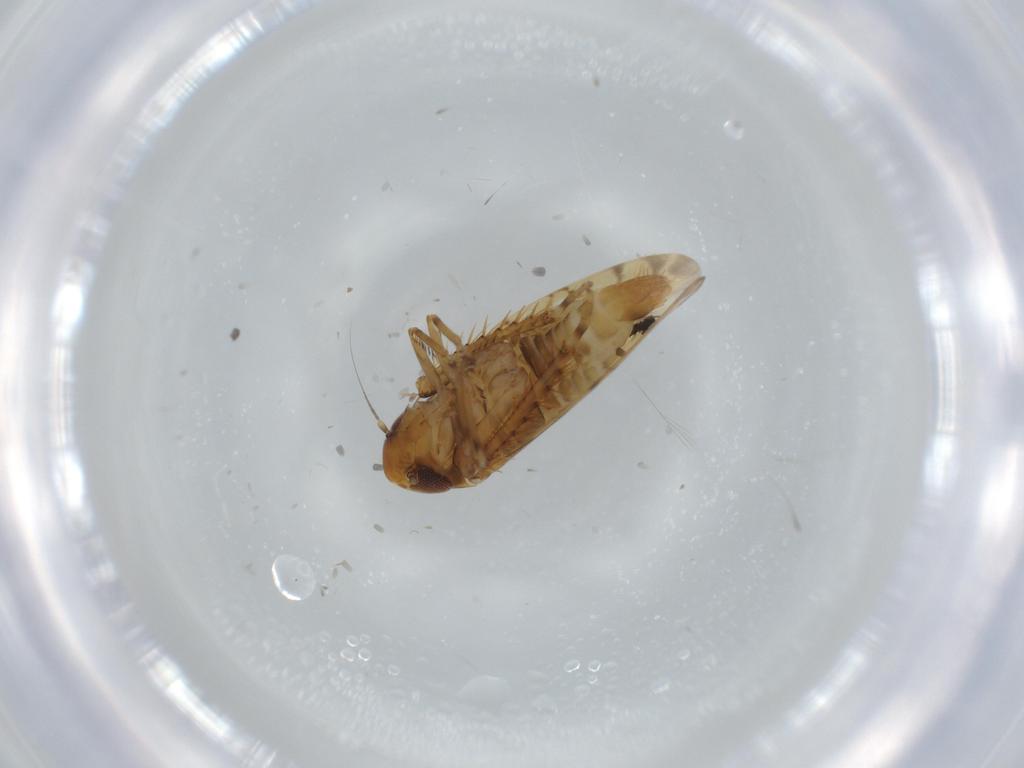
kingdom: Animalia
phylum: Arthropoda
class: Insecta
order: Hemiptera
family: Cicadellidae
